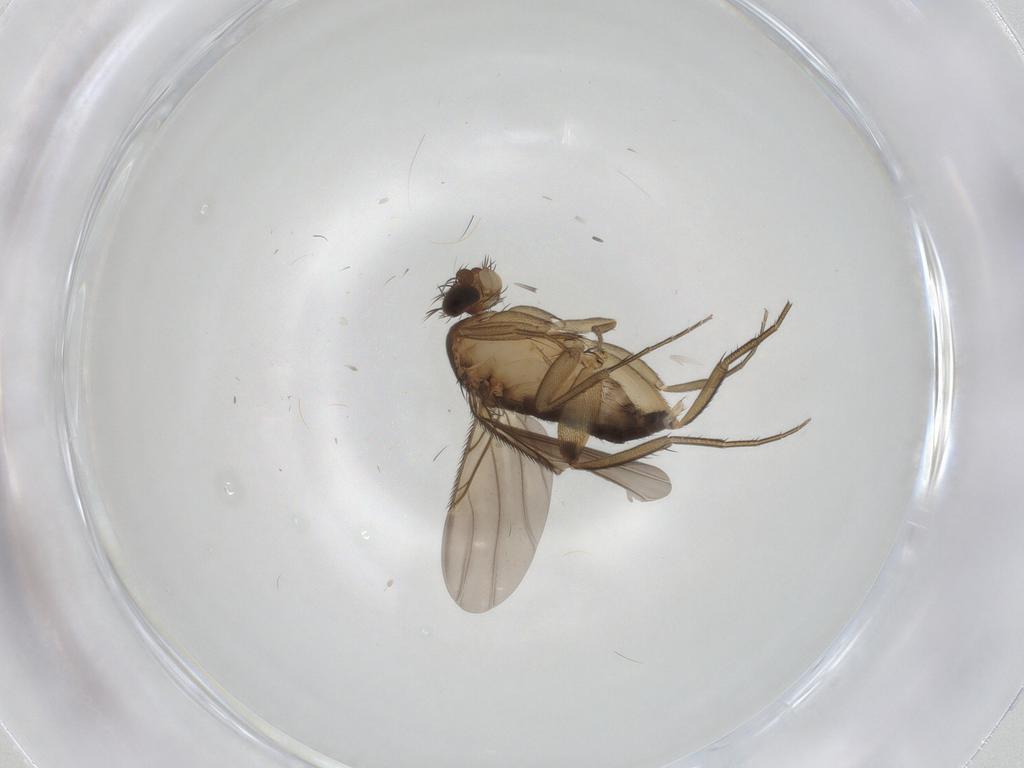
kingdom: Animalia
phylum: Arthropoda
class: Insecta
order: Diptera
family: Phoridae
